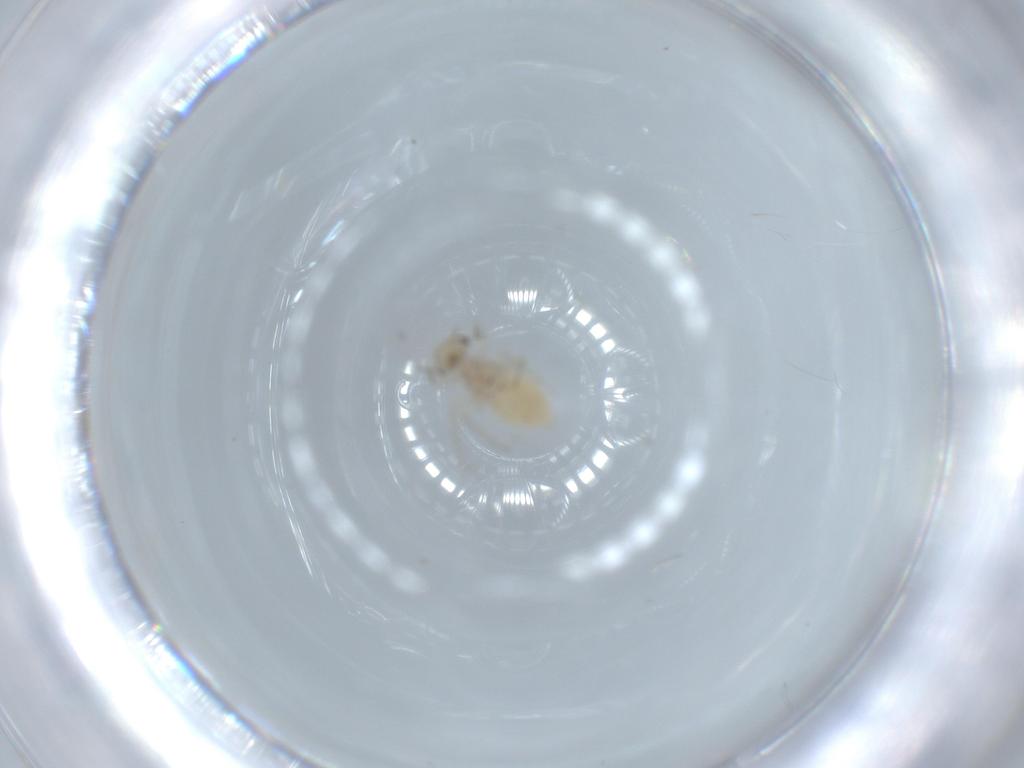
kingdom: Animalia
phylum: Arthropoda
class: Insecta
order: Psocodea
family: Lachesillidae
